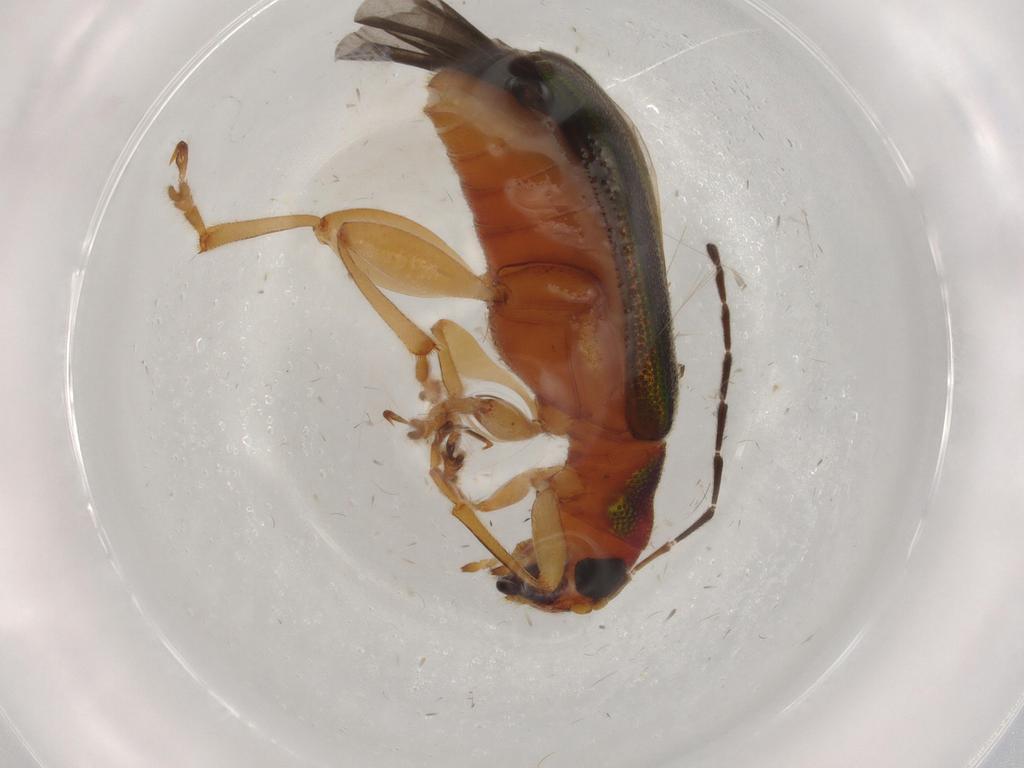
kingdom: Animalia
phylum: Arthropoda
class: Insecta
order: Coleoptera
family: Chrysomelidae
